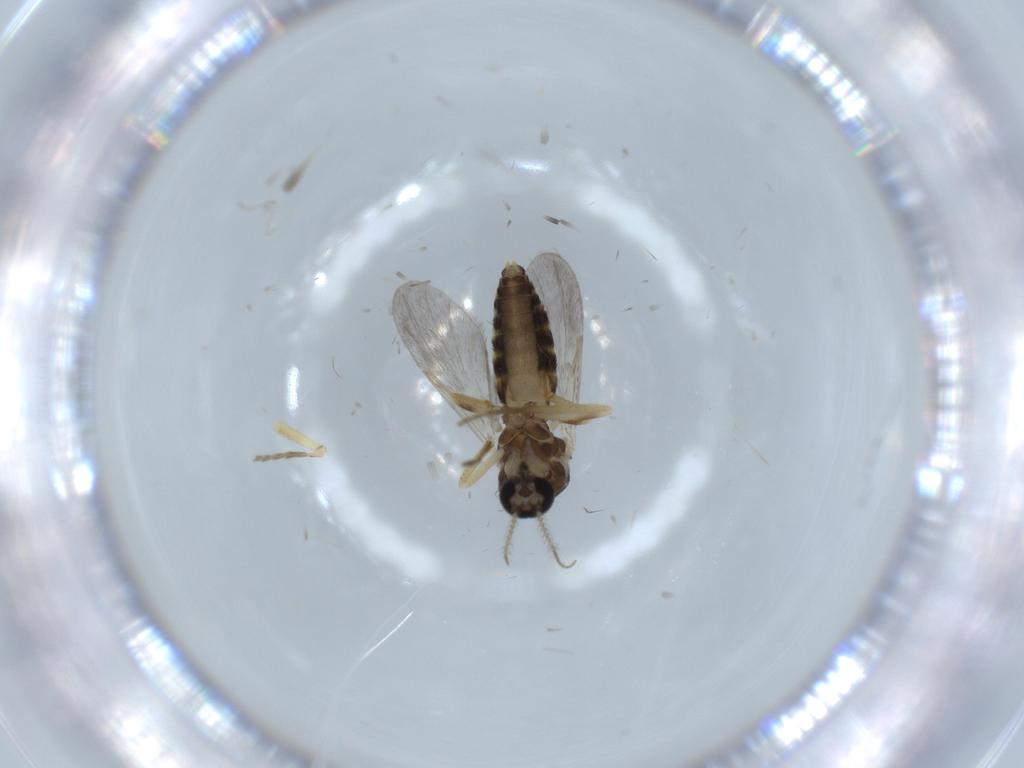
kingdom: Animalia
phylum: Arthropoda
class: Insecta
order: Diptera
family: Ceratopogonidae
